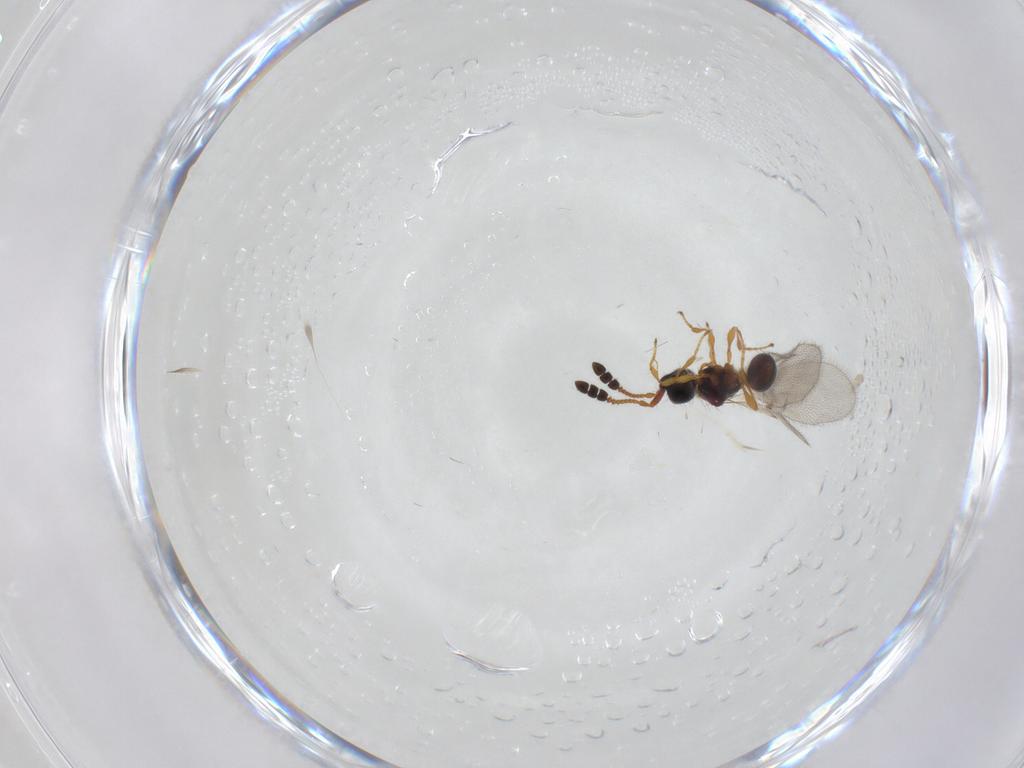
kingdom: Animalia
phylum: Arthropoda
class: Insecta
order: Hymenoptera
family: Diapriidae
